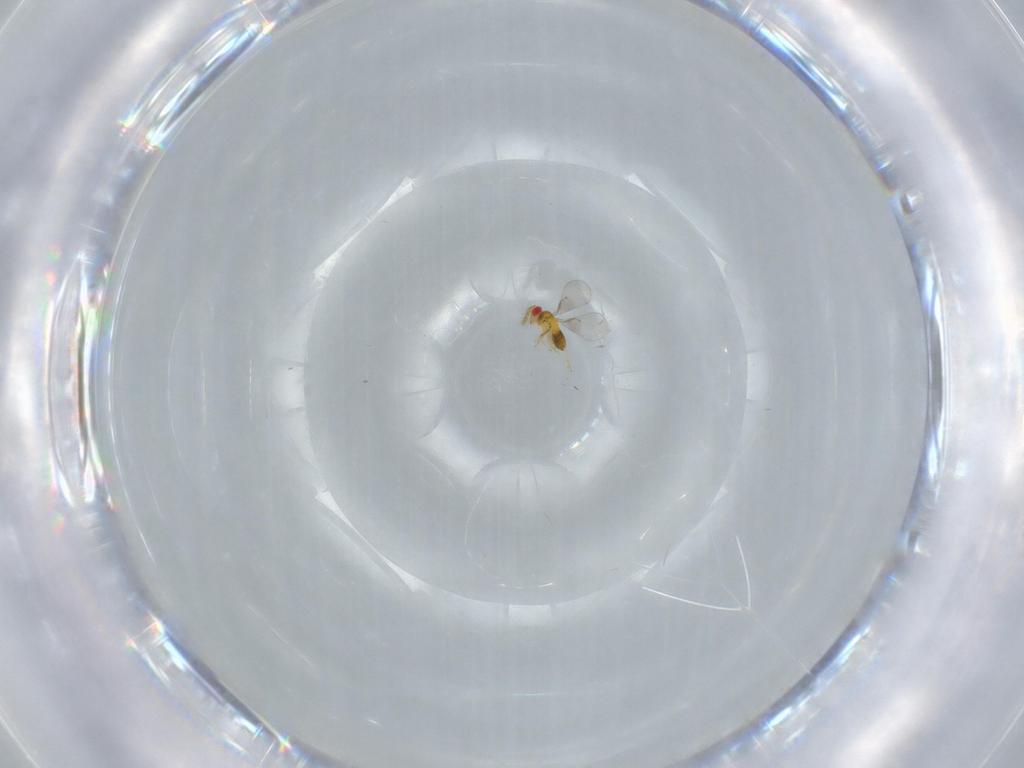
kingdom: Animalia
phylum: Arthropoda
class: Insecta
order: Hymenoptera
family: Trichogrammatidae
